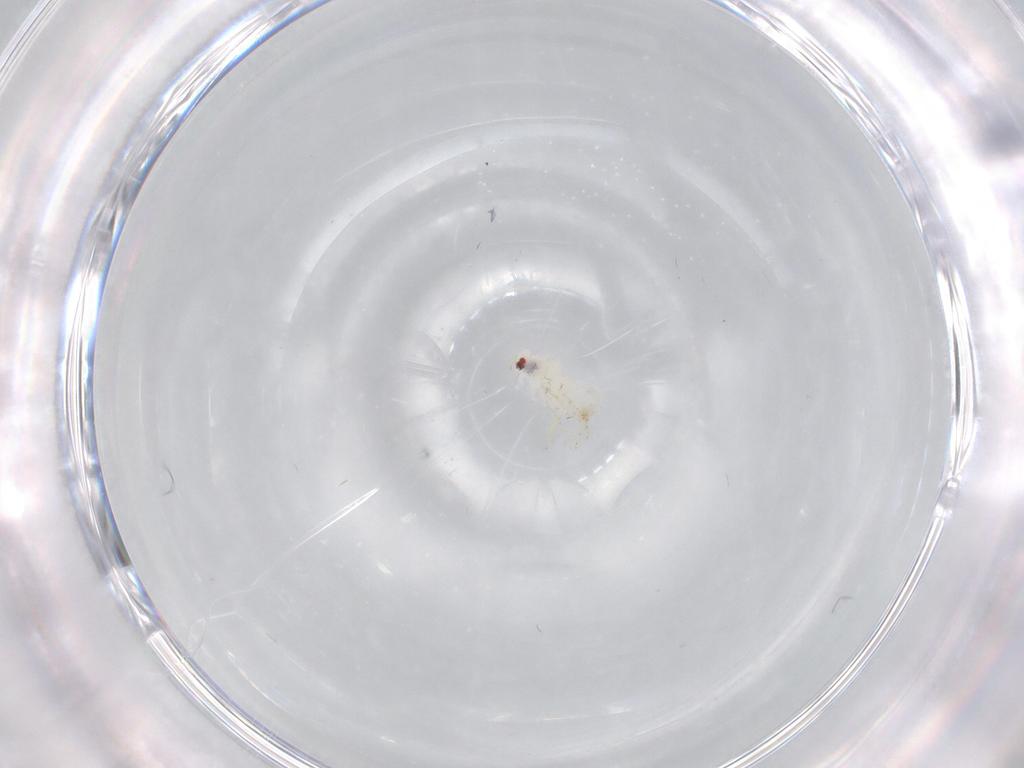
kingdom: Animalia
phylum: Arthropoda
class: Insecta
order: Hemiptera
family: Aleyrodidae
